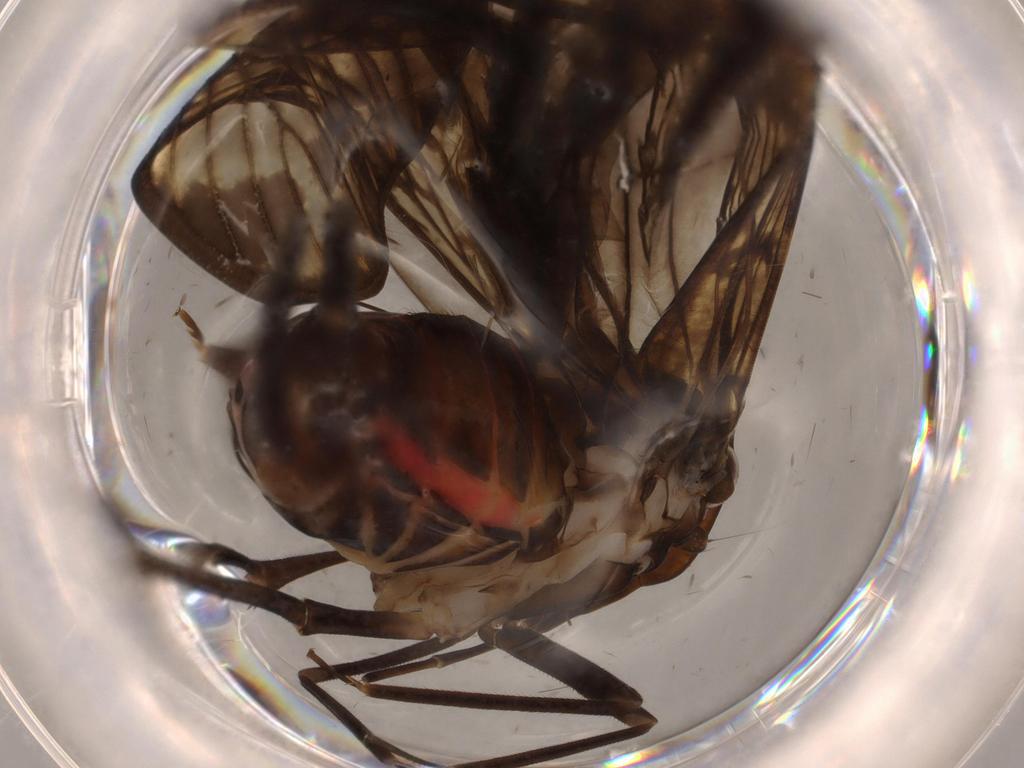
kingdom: Animalia
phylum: Arthropoda
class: Insecta
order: Hemiptera
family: Cixiidae
